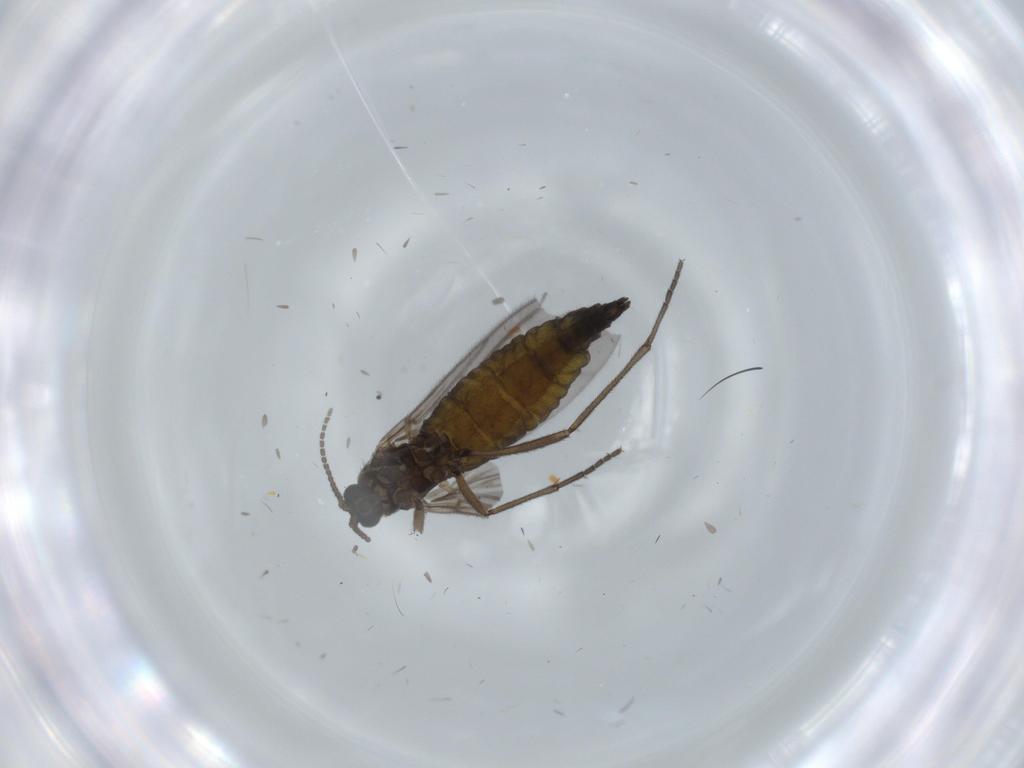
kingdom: Animalia
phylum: Arthropoda
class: Insecta
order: Diptera
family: Sciaridae
